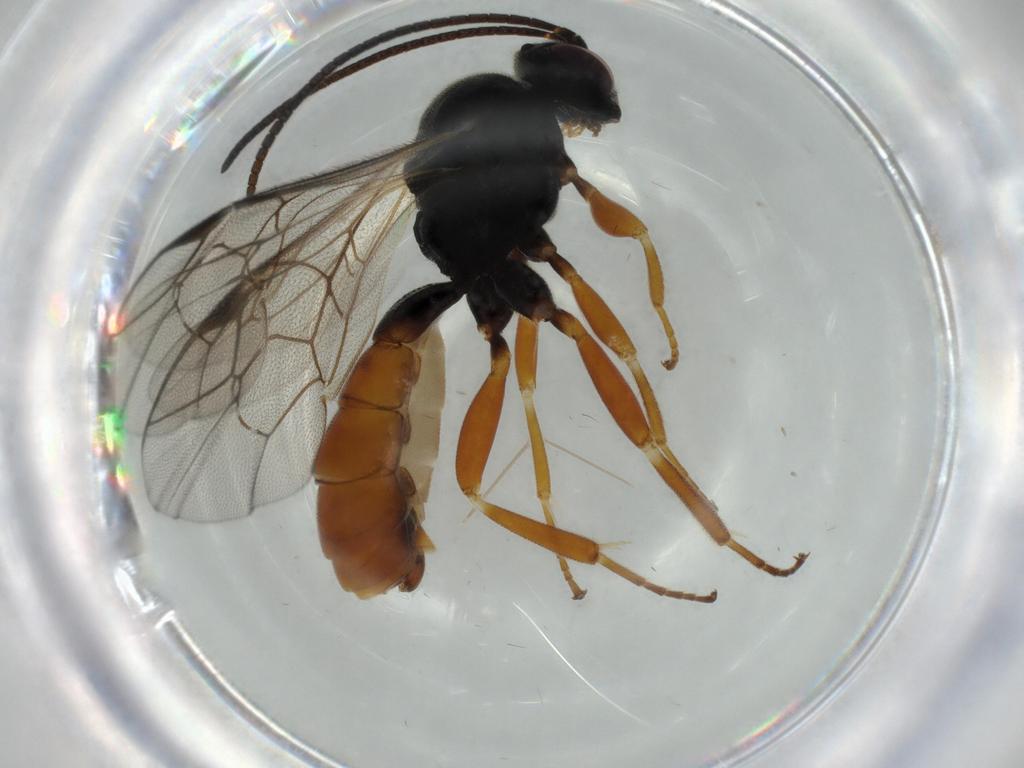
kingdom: Animalia
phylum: Arthropoda
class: Insecta
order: Hymenoptera
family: Ichneumonidae
